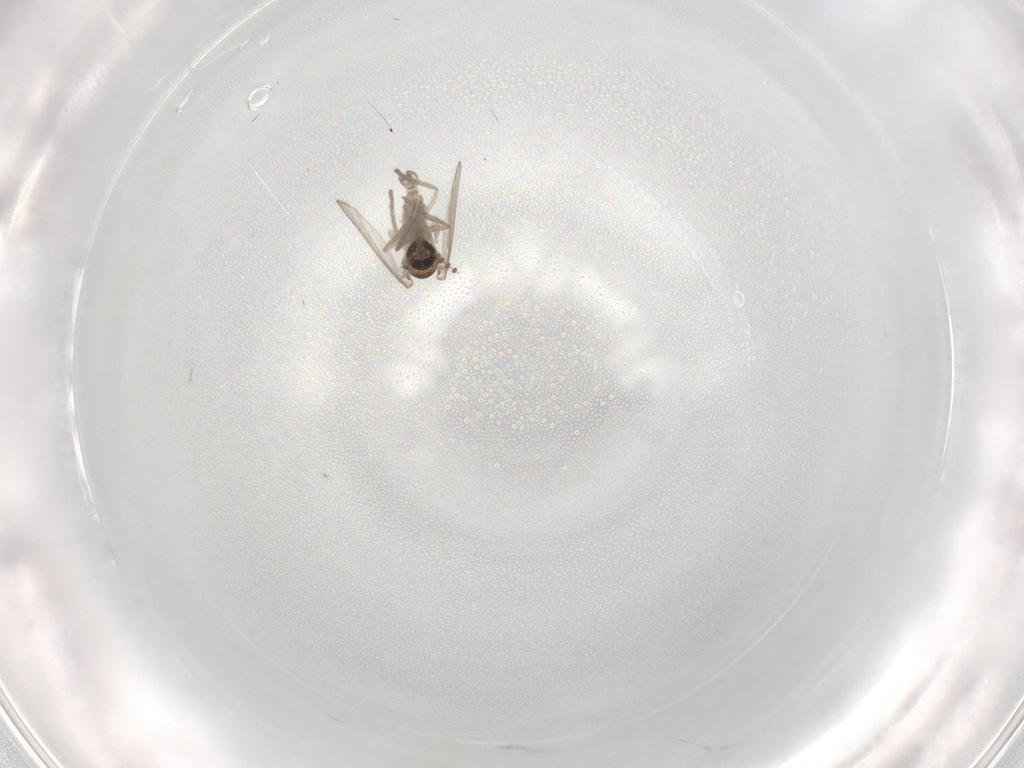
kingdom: Animalia
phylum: Arthropoda
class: Insecta
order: Diptera
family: Psychodidae
